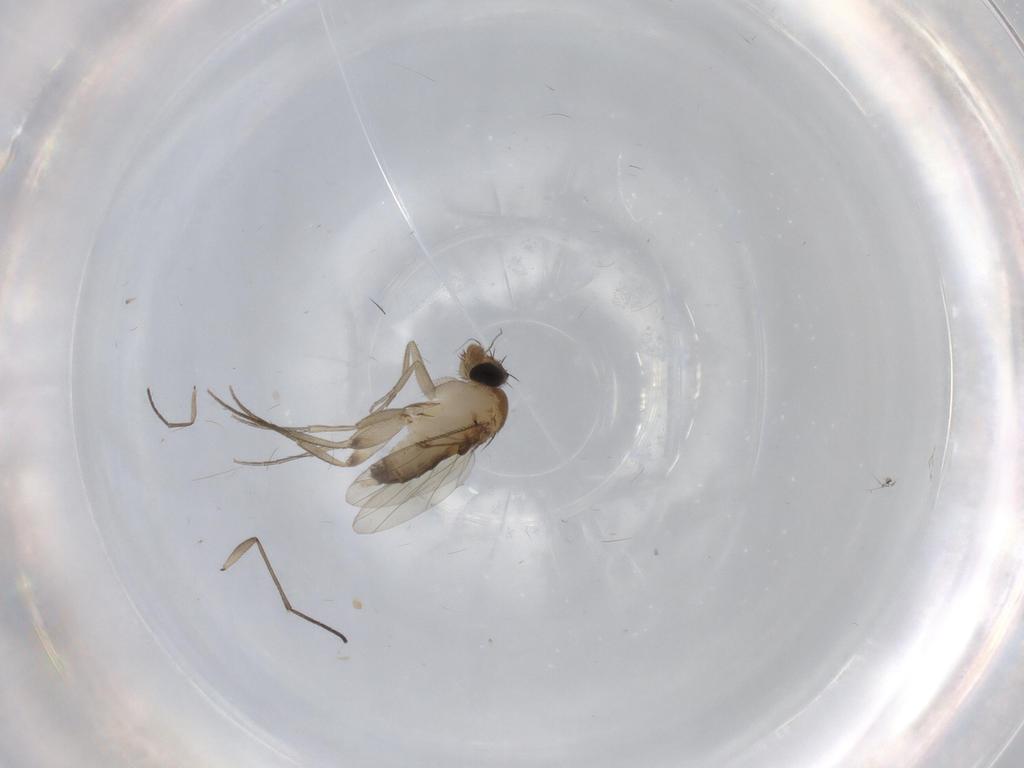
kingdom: Animalia
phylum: Arthropoda
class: Insecta
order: Diptera
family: Phoridae
